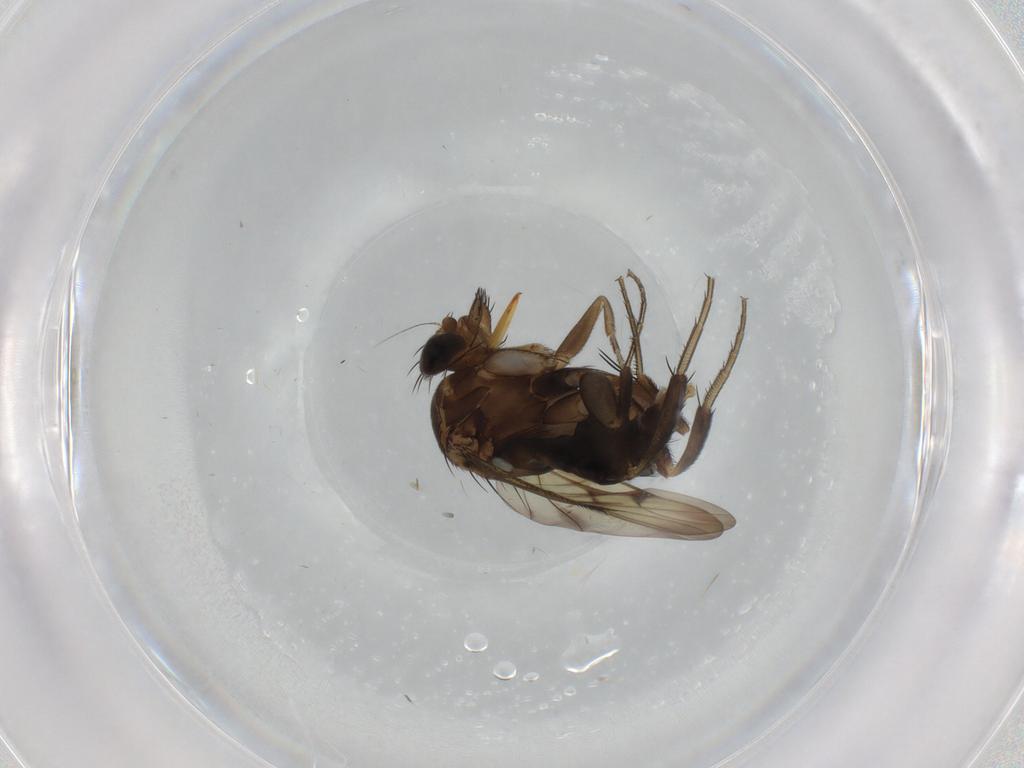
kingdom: Animalia
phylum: Arthropoda
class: Insecta
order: Diptera
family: Phoridae
